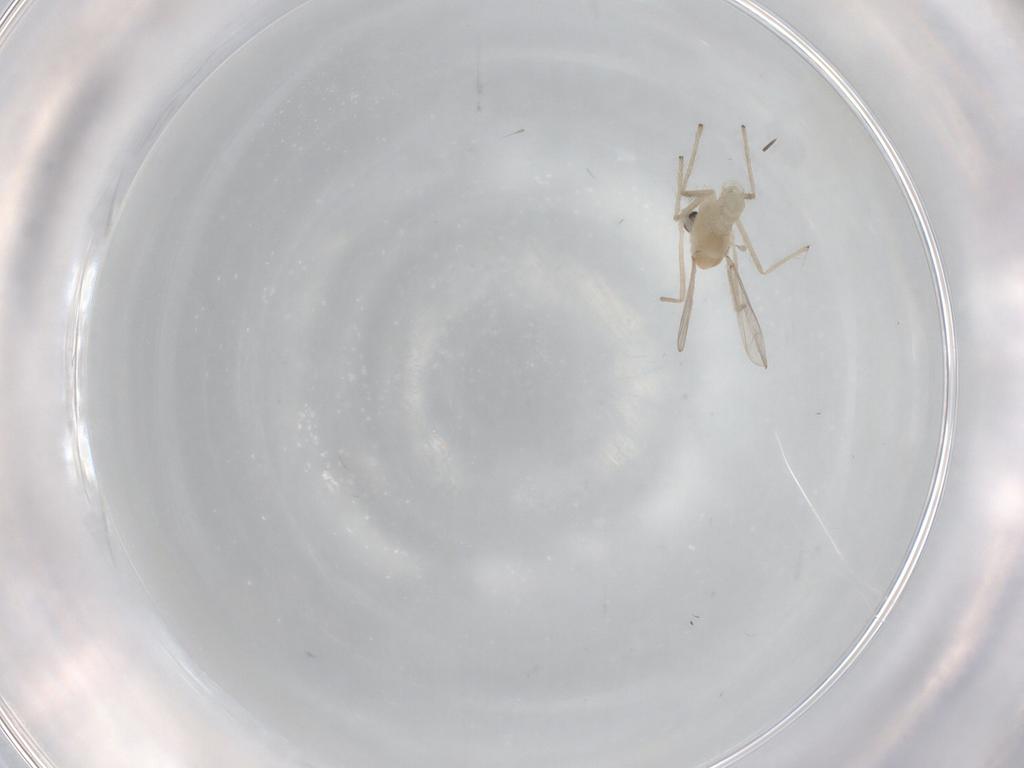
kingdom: Animalia
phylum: Arthropoda
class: Insecta
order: Diptera
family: Chironomidae
